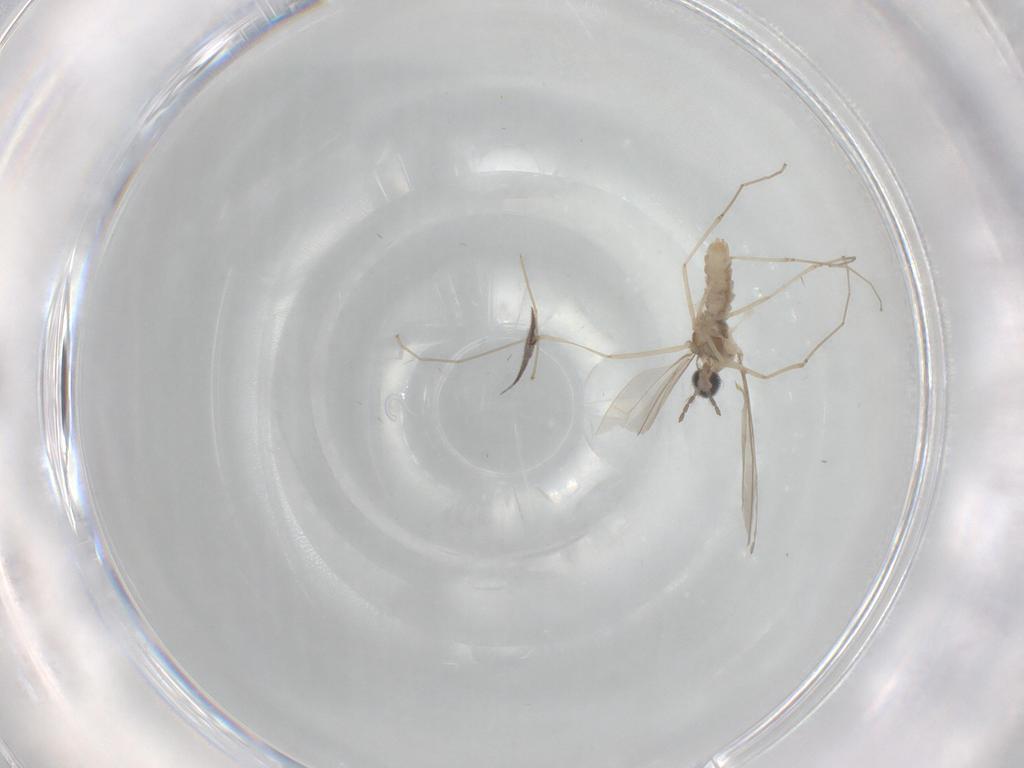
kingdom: Animalia
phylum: Arthropoda
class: Insecta
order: Diptera
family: Cecidomyiidae
